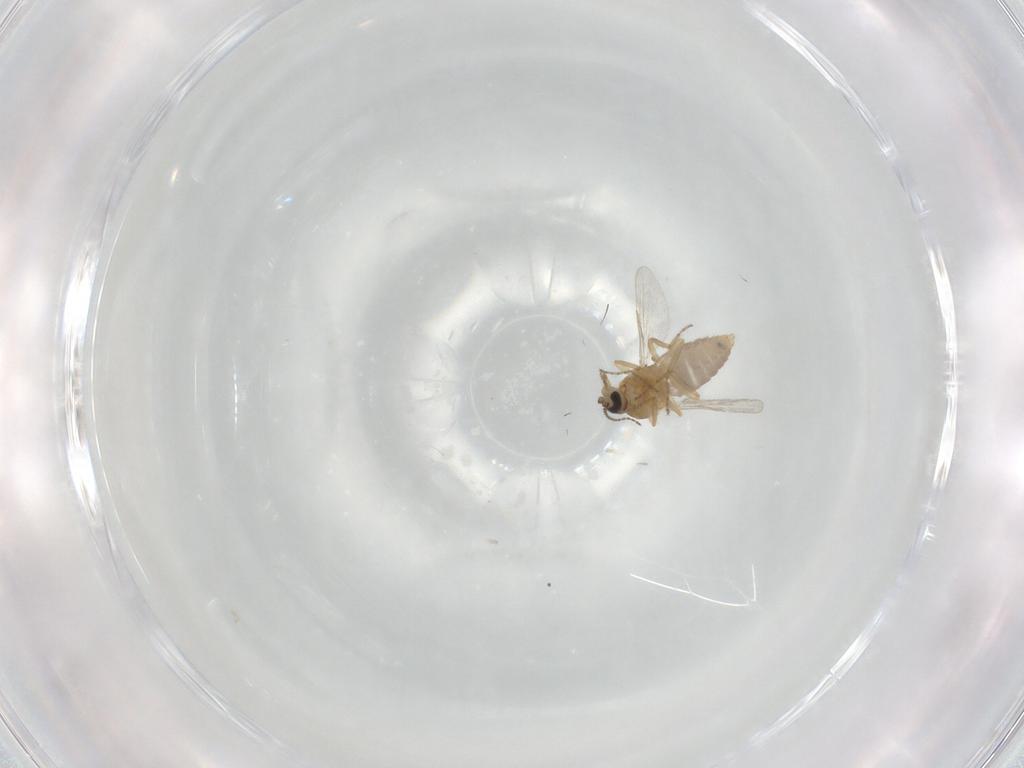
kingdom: Animalia
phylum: Arthropoda
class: Insecta
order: Diptera
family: Ceratopogonidae
